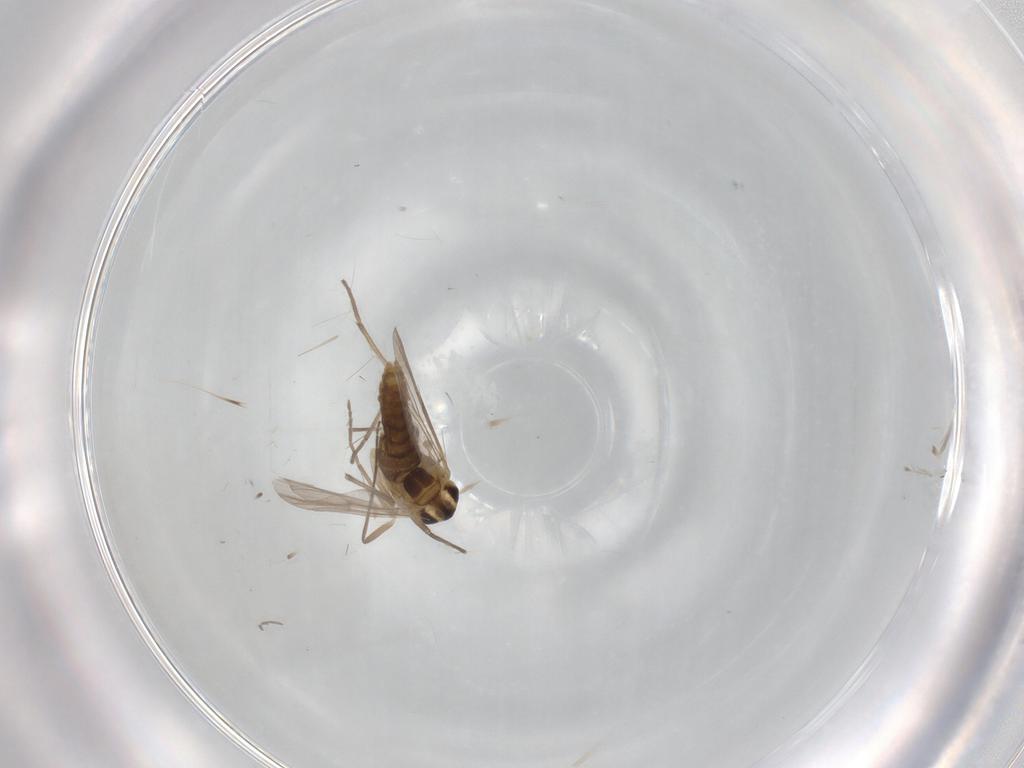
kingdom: Animalia
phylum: Arthropoda
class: Insecta
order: Diptera
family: Chironomidae
